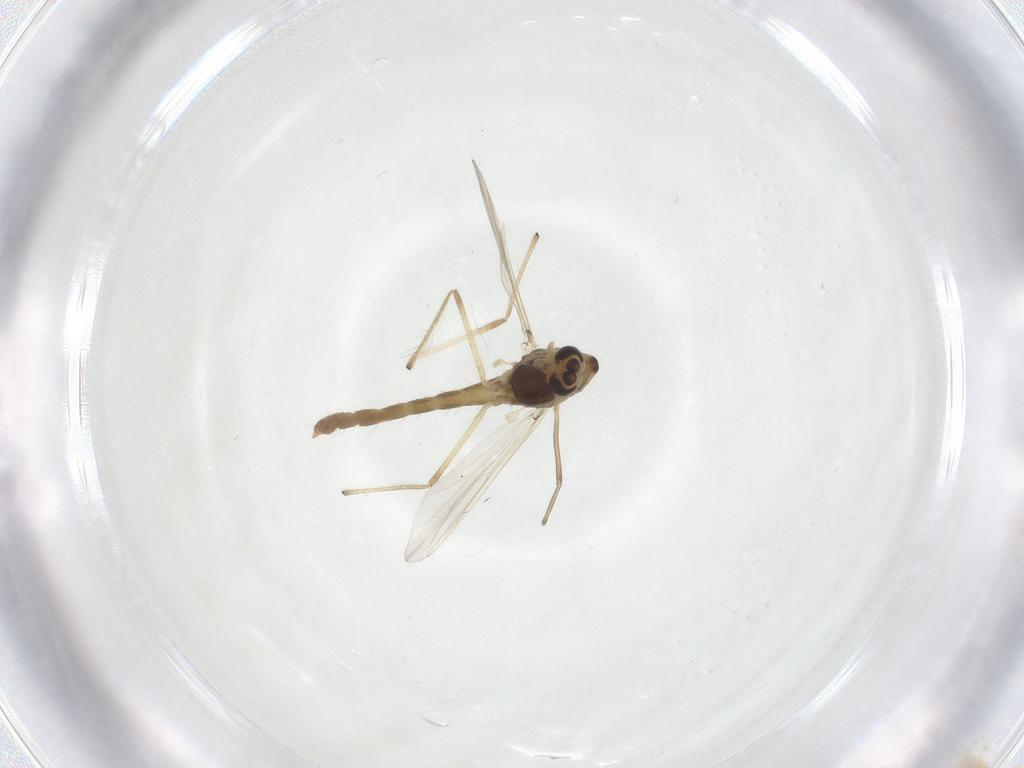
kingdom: Animalia
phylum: Arthropoda
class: Insecta
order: Diptera
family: Chironomidae
